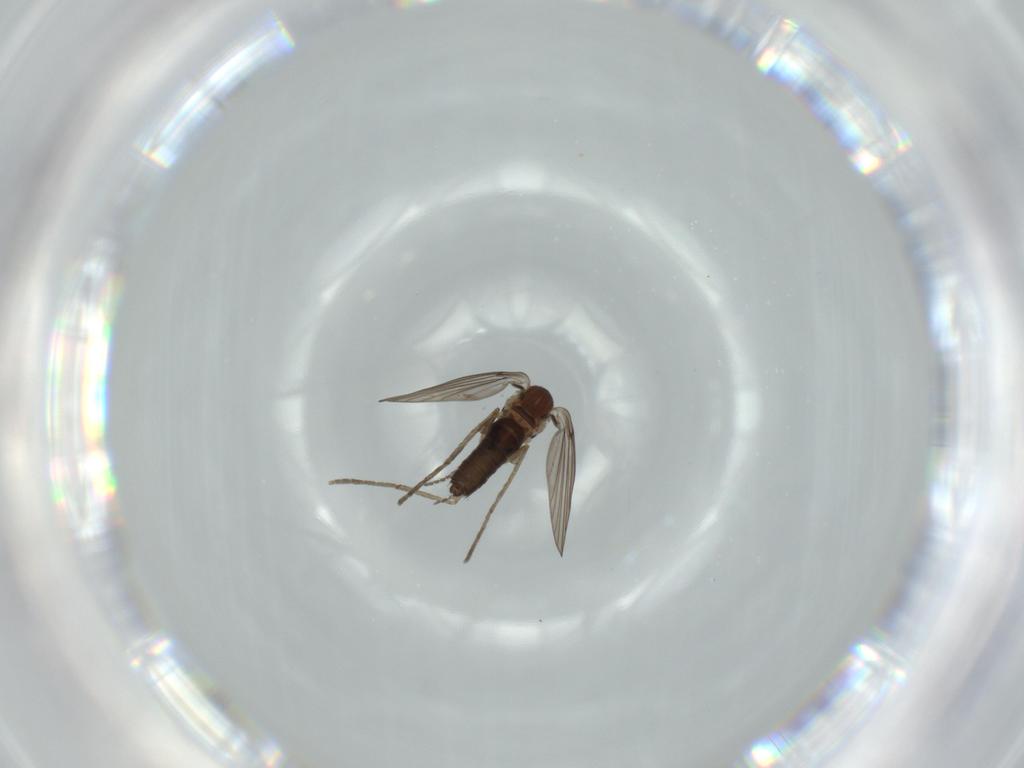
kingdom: Animalia
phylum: Arthropoda
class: Insecta
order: Diptera
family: Psychodidae
